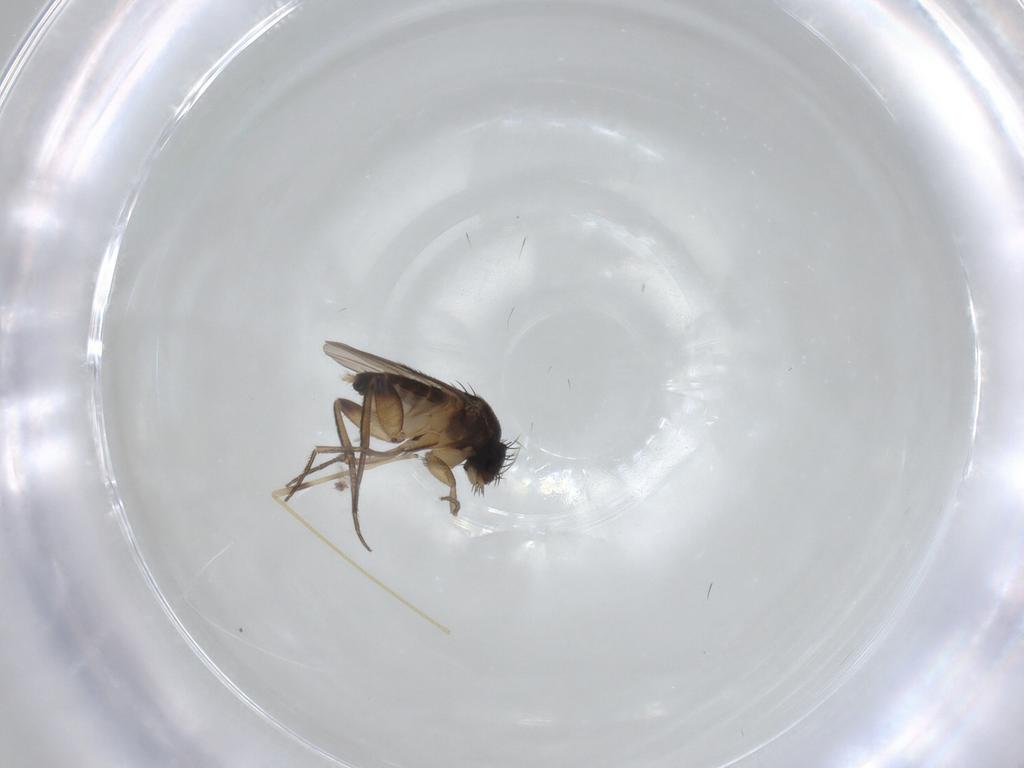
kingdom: Animalia
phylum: Arthropoda
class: Insecta
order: Diptera
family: Phoridae
